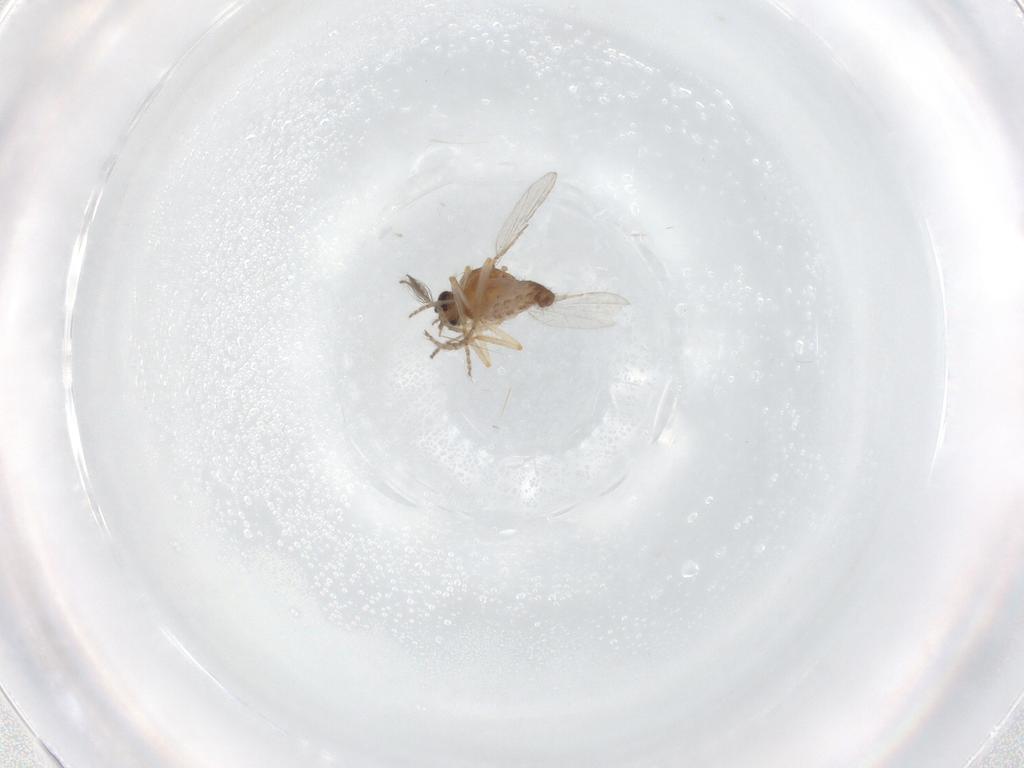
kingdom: Animalia
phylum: Arthropoda
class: Insecta
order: Diptera
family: Ceratopogonidae
